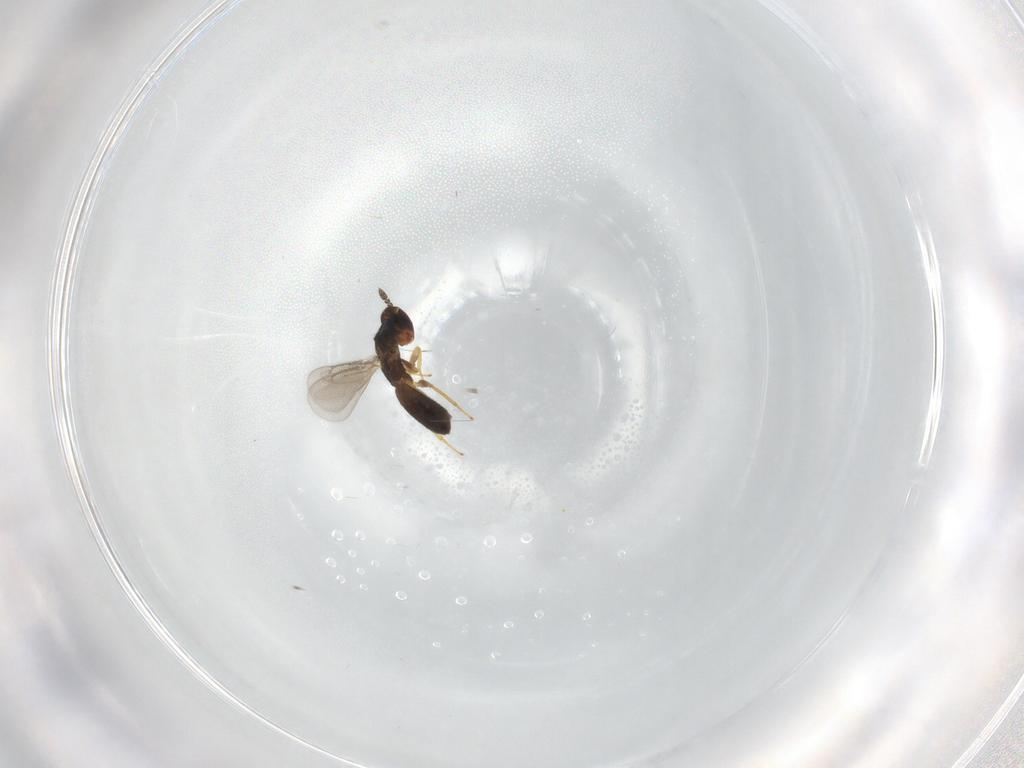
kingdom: Animalia
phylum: Arthropoda
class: Insecta
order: Hymenoptera
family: Eulophidae
